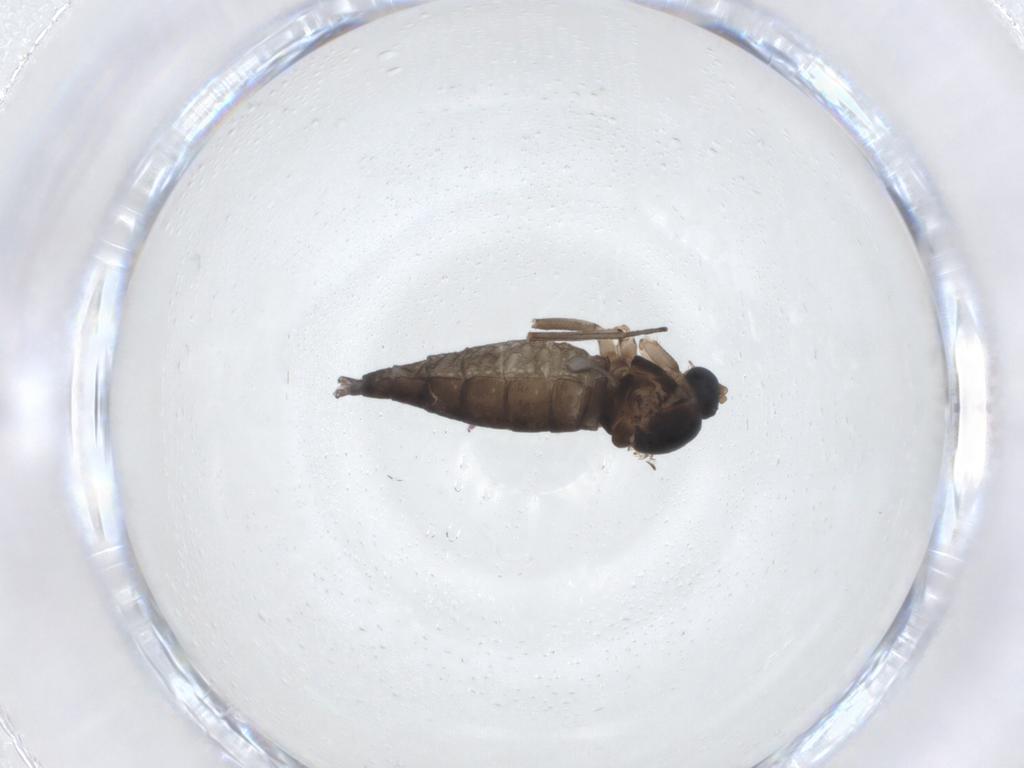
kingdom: Animalia
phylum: Arthropoda
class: Insecta
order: Diptera
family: Sciaridae
